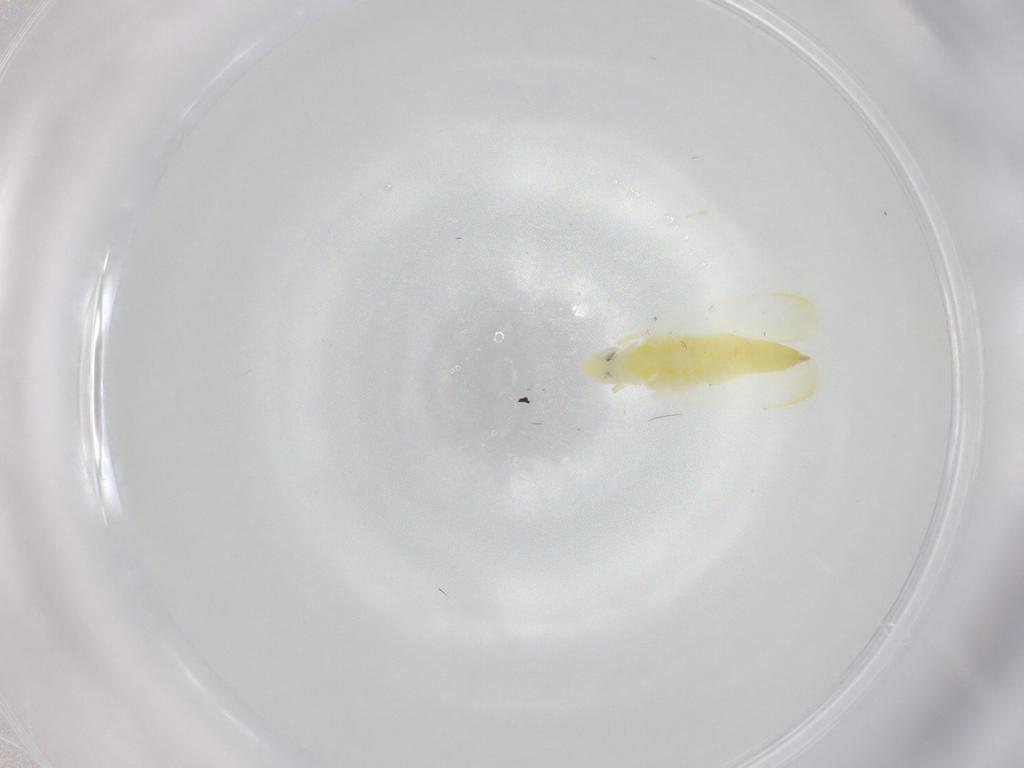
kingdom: Animalia
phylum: Arthropoda
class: Insecta
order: Hemiptera
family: Cicadellidae
